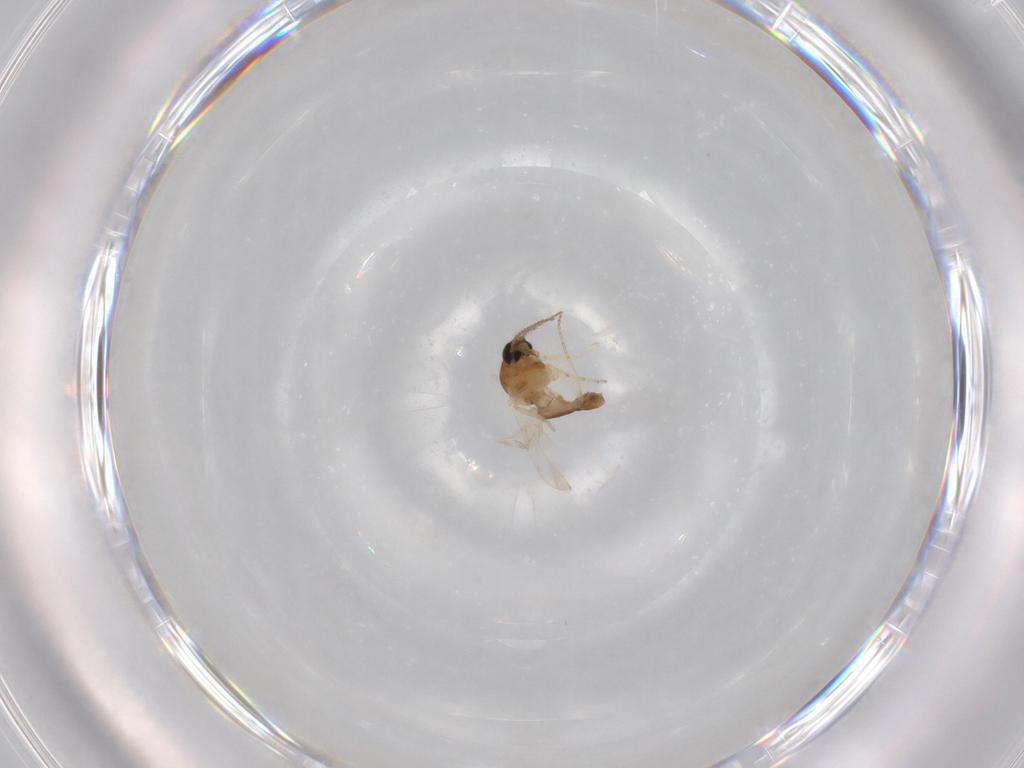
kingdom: Animalia
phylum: Arthropoda
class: Insecta
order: Diptera
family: Ceratopogonidae
